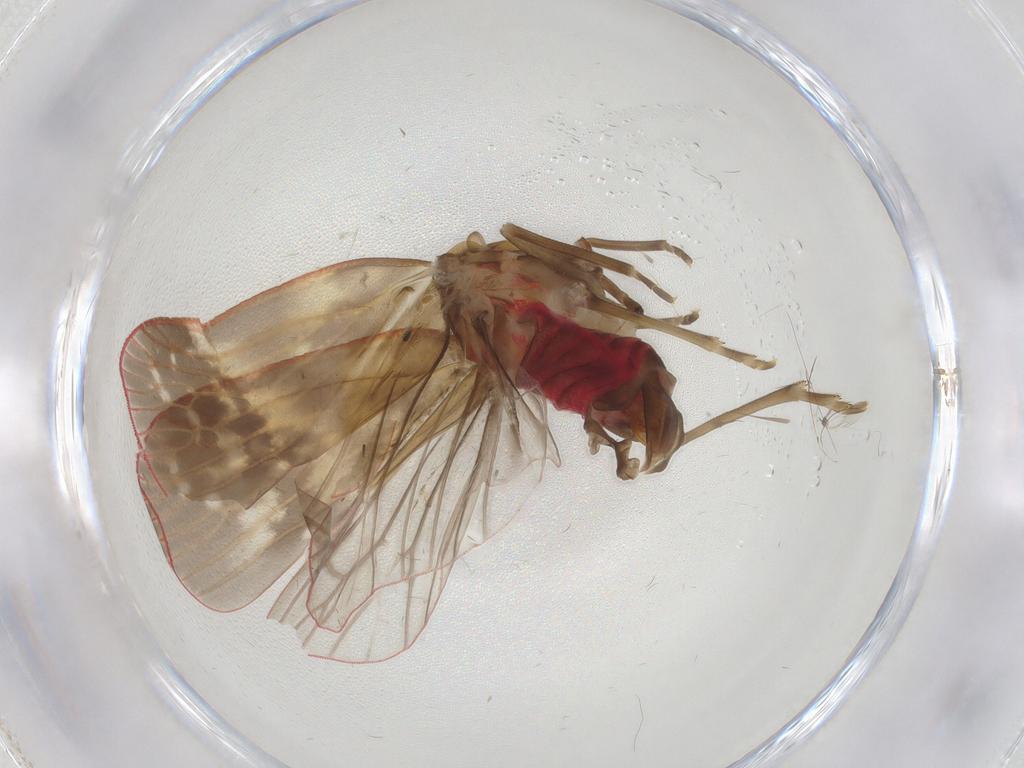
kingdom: Animalia
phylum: Arthropoda
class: Insecta
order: Hemiptera
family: Achilidae
